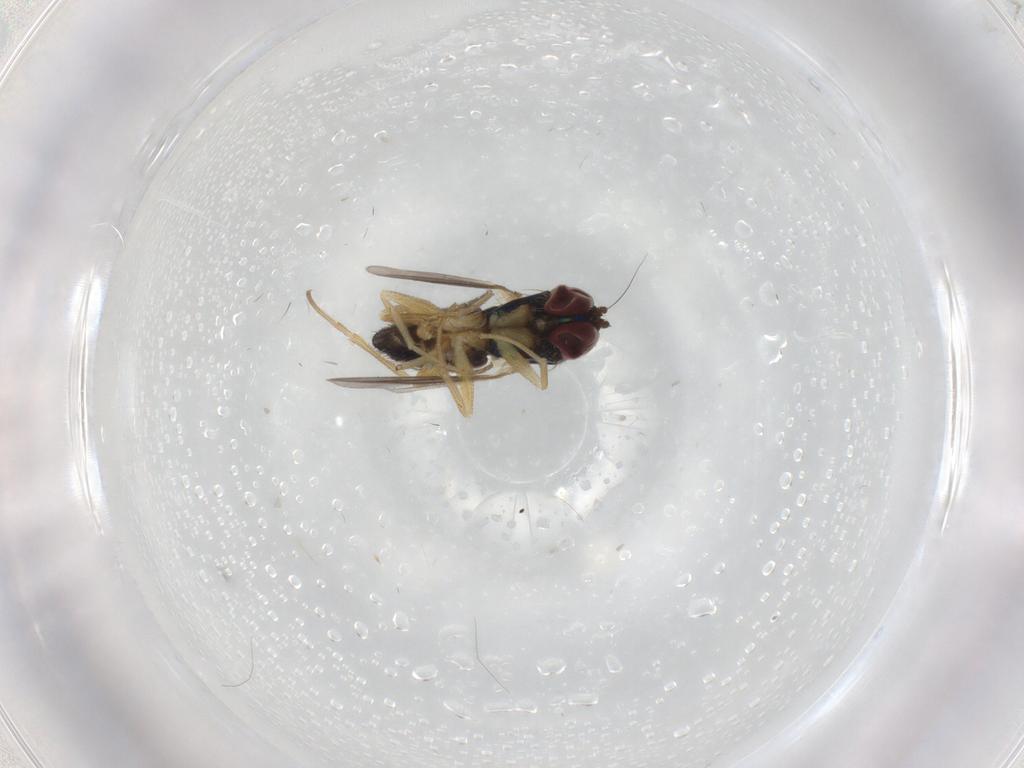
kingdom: Animalia
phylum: Arthropoda
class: Insecta
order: Diptera
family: Dolichopodidae
